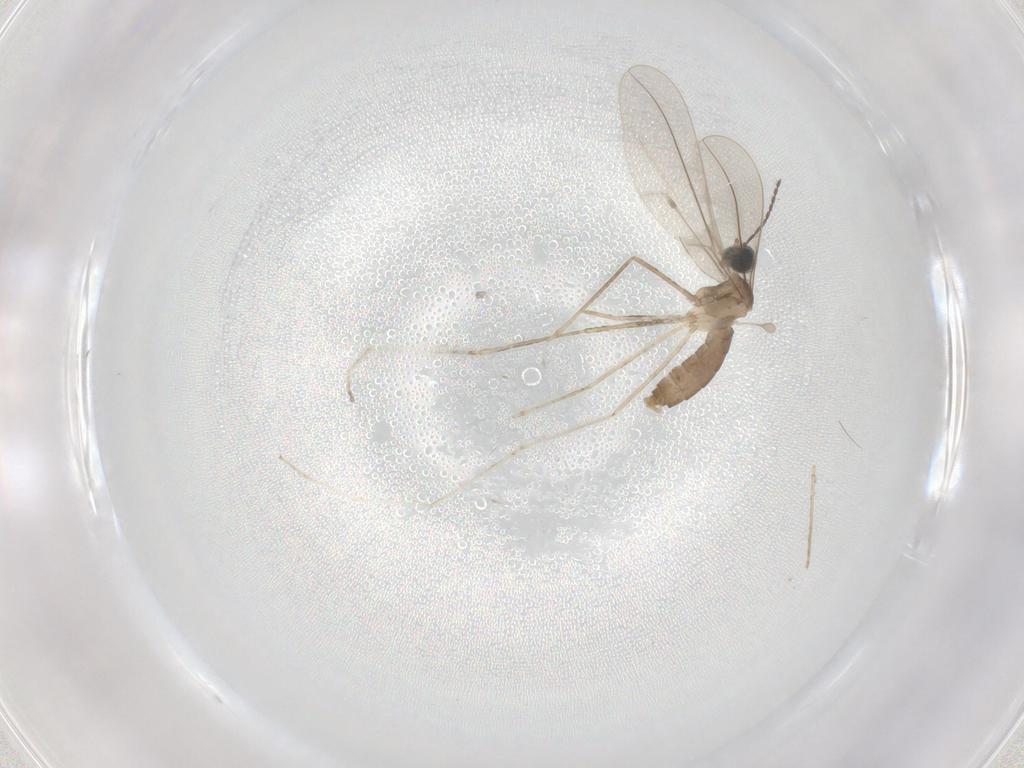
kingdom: Animalia
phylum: Arthropoda
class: Insecta
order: Diptera
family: Cecidomyiidae
